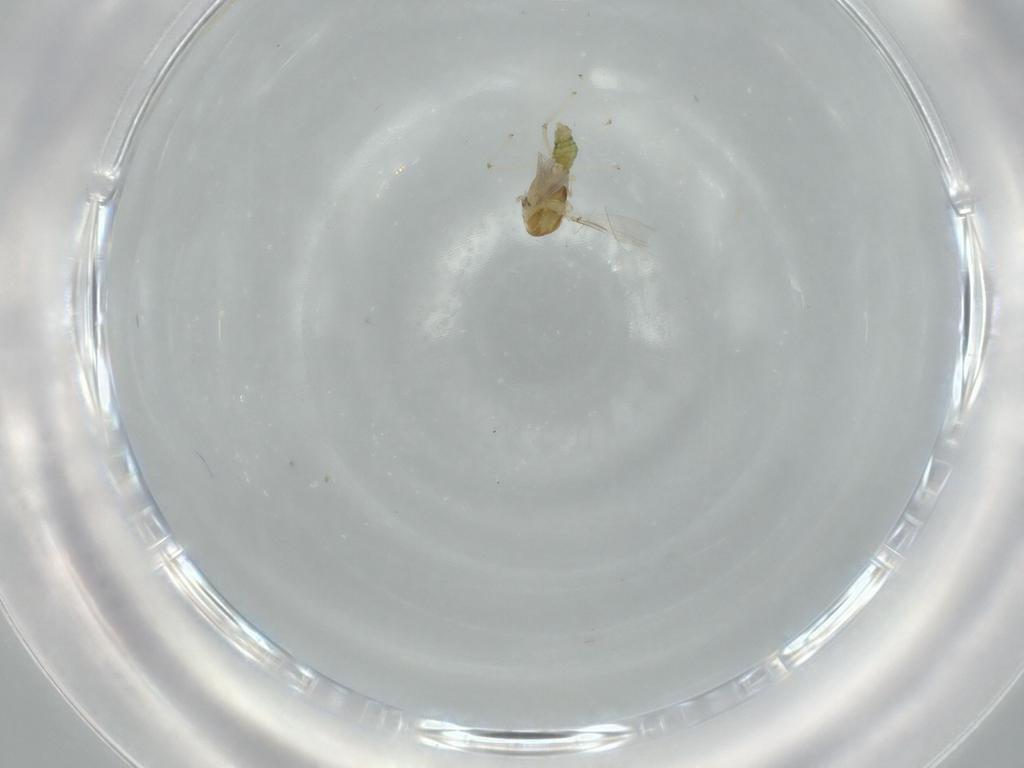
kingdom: Animalia
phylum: Arthropoda
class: Insecta
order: Diptera
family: Chironomidae
